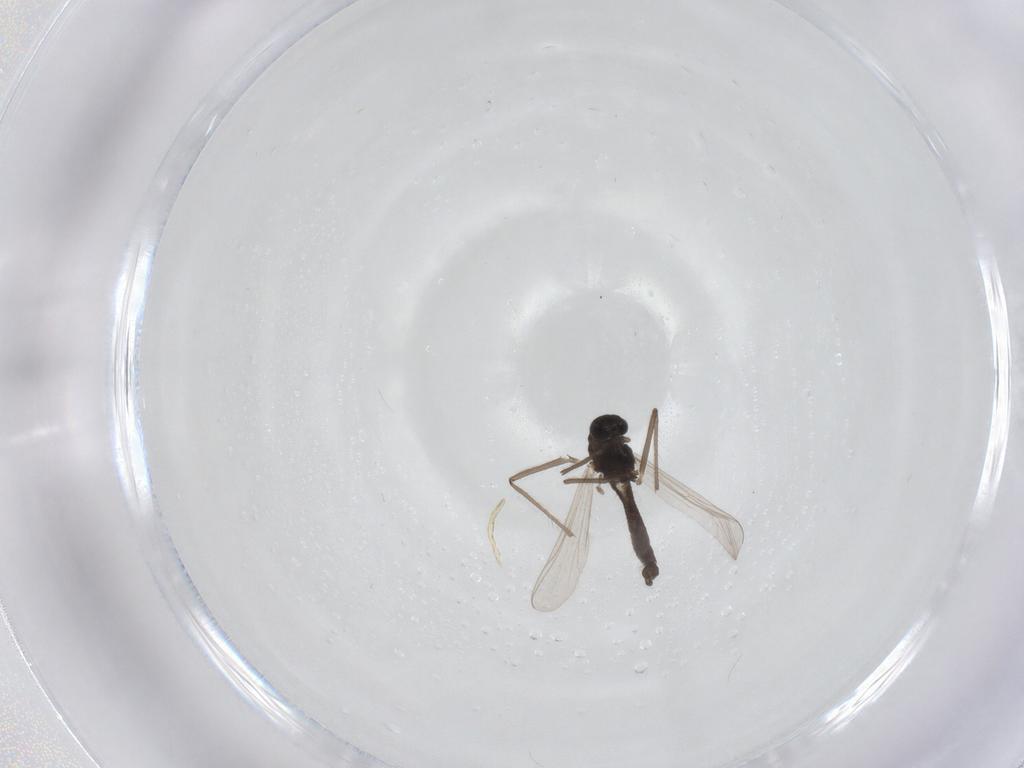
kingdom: Animalia
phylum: Arthropoda
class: Insecta
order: Diptera
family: Chironomidae
